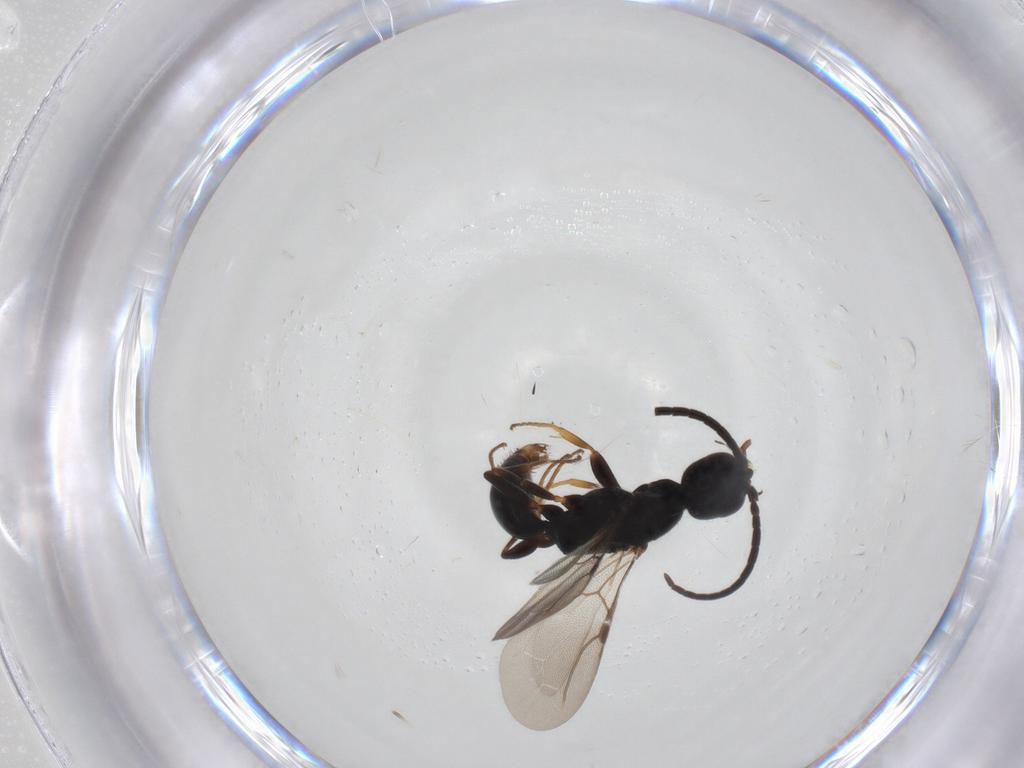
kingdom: Animalia
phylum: Arthropoda
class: Insecta
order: Hymenoptera
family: Bethylidae
